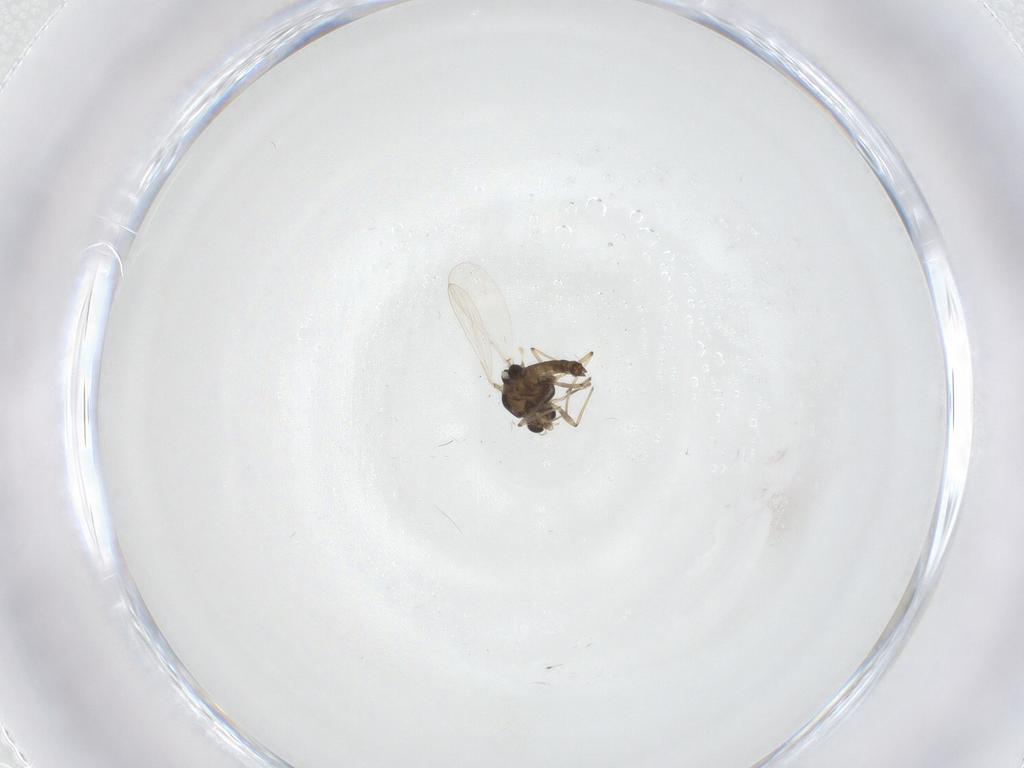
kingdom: Animalia
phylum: Arthropoda
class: Insecta
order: Diptera
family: Chironomidae
